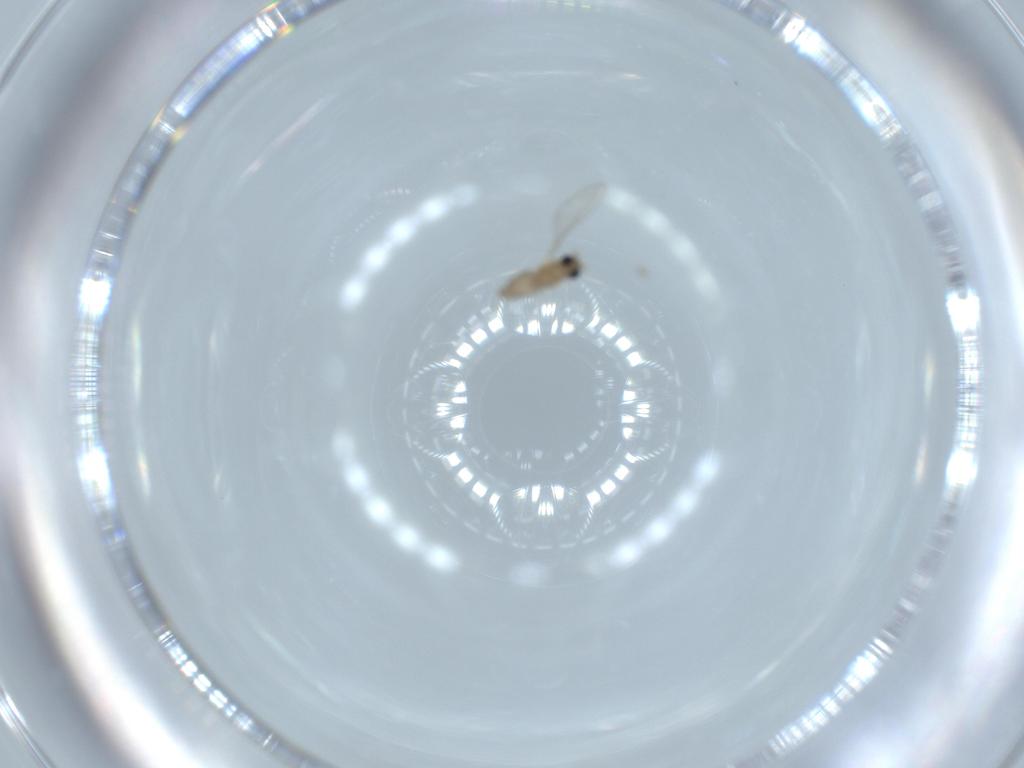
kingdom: Animalia
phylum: Arthropoda
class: Insecta
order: Diptera
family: Cecidomyiidae
